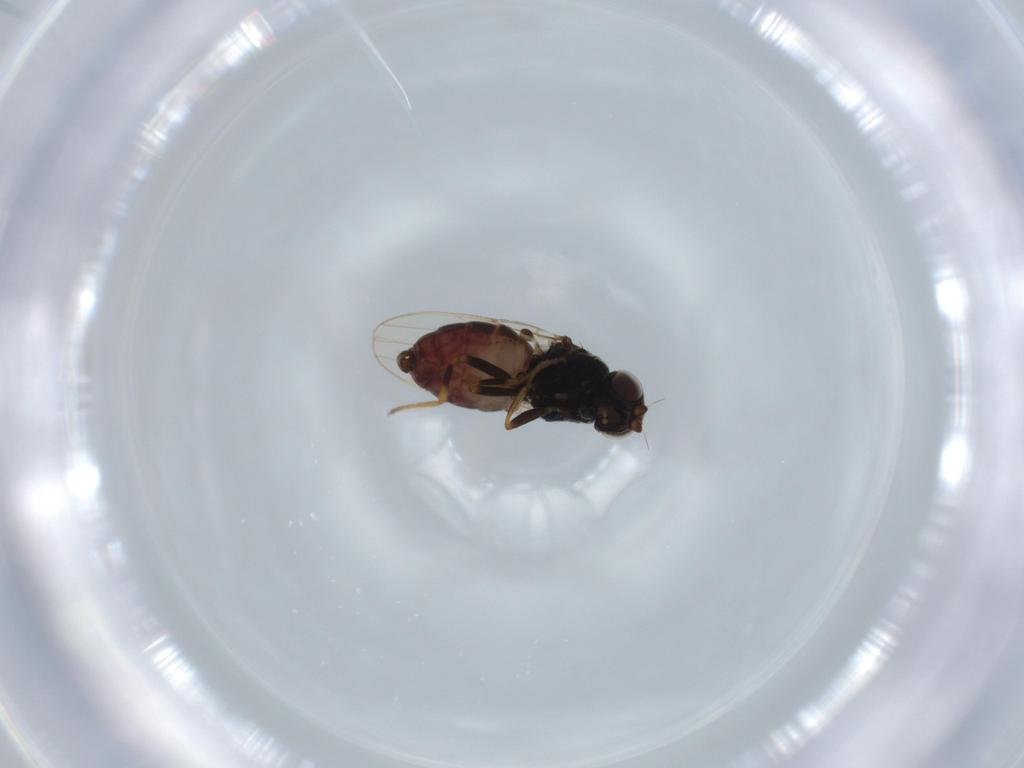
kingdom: Animalia
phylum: Arthropoda
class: Insecta
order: Diptera
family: Chloropidae
